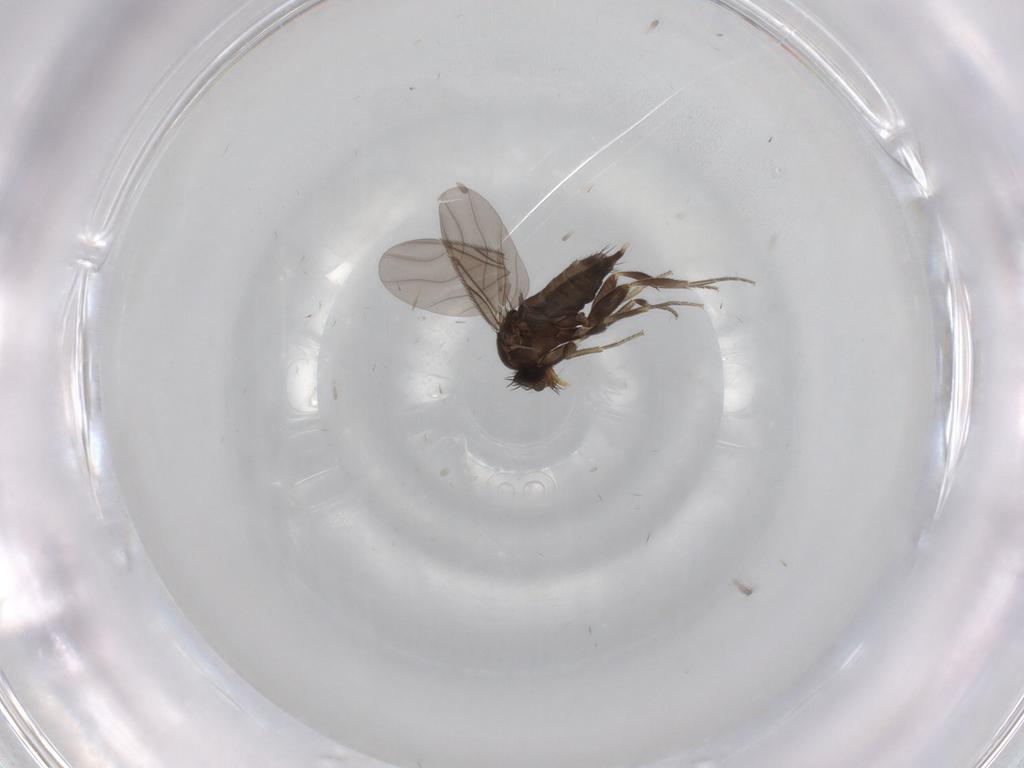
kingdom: Animalia
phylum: Arthropoda
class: Insecta
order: Diptera
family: Phoridae
